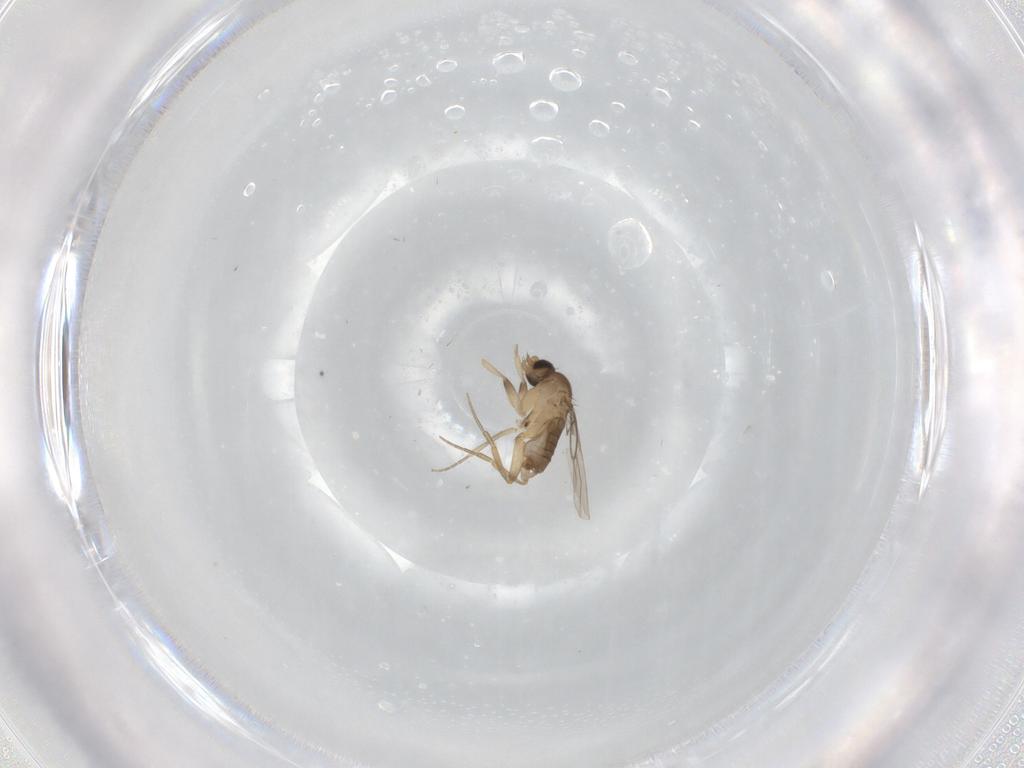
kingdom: Animalia
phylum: Arthropoda
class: Insecta
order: Diptera
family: Phoridae
